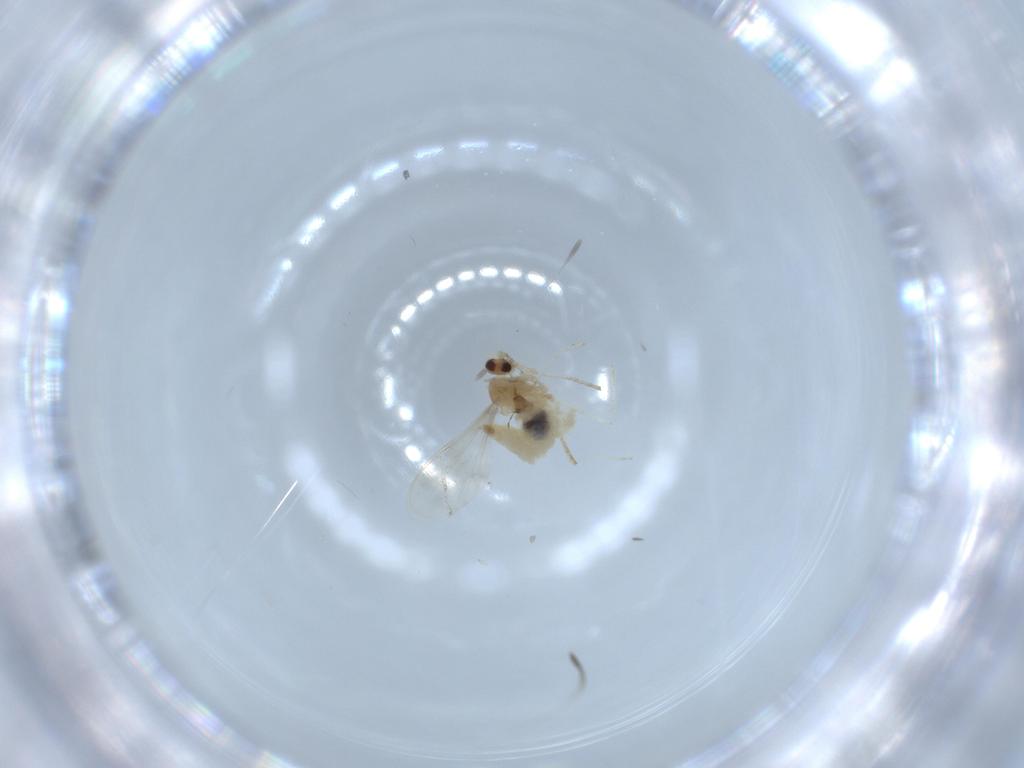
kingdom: Animalia
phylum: Arthropoda
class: Insecta
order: Diptera
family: Cecidomyiidae
